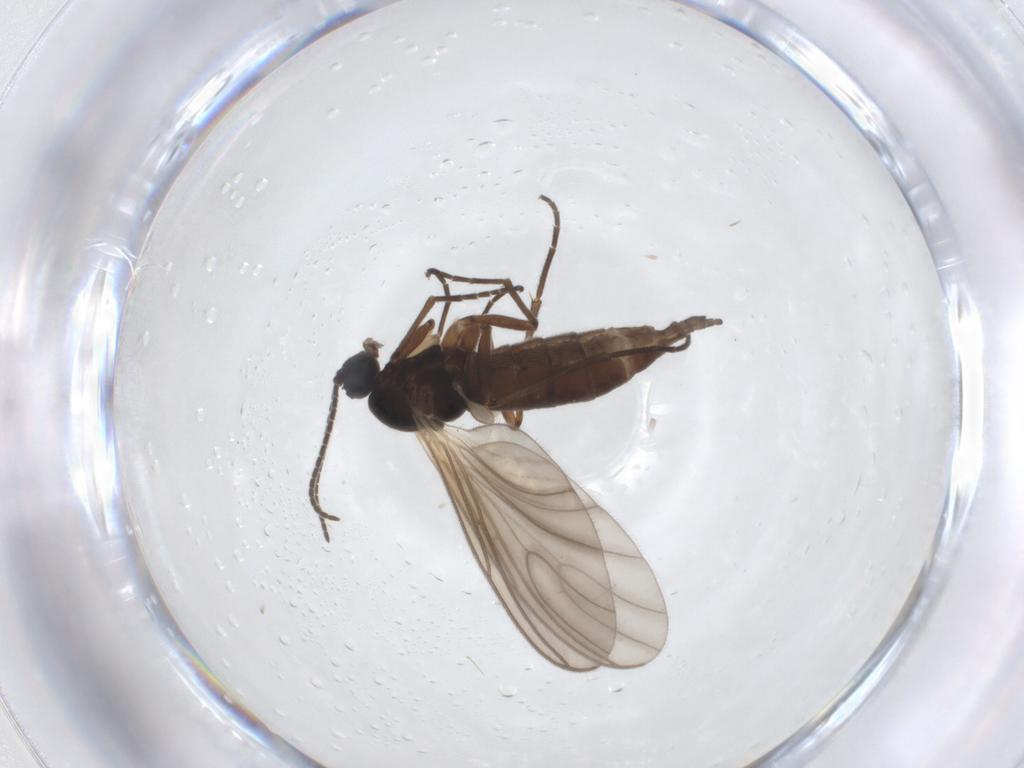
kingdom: Animalia
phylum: Arthropoda
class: Insecta
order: Diptera
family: Sciaridae
